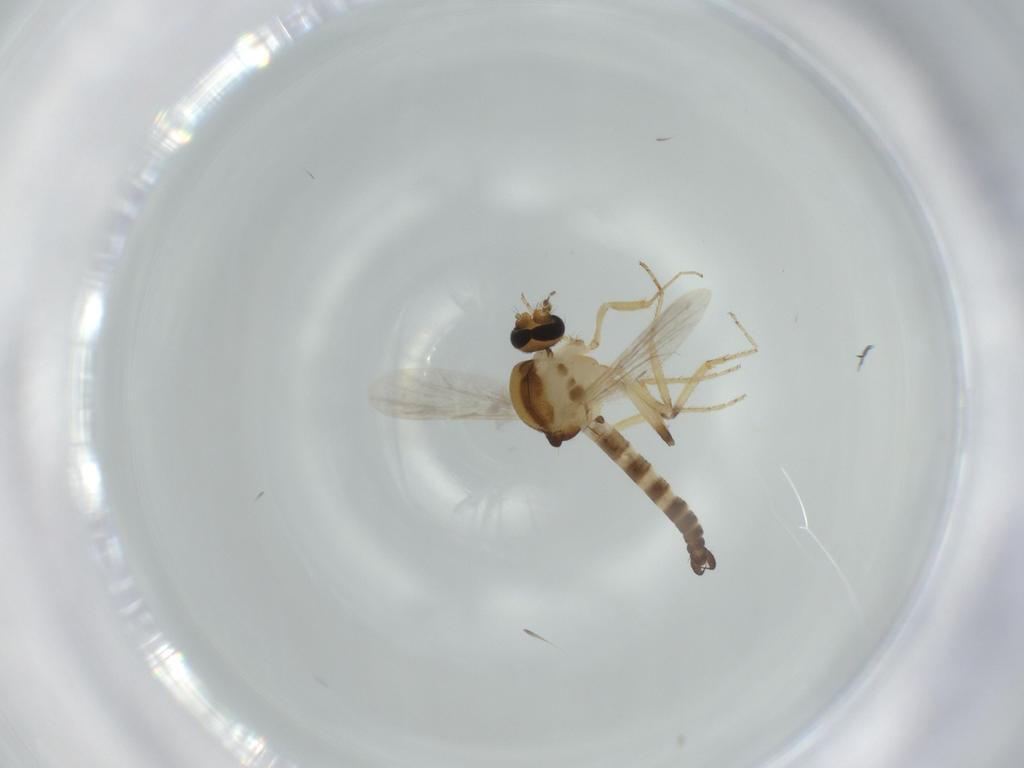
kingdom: Animalia
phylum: Arthropoda
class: Insecta
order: Diptera
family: Ceratopogonidae
